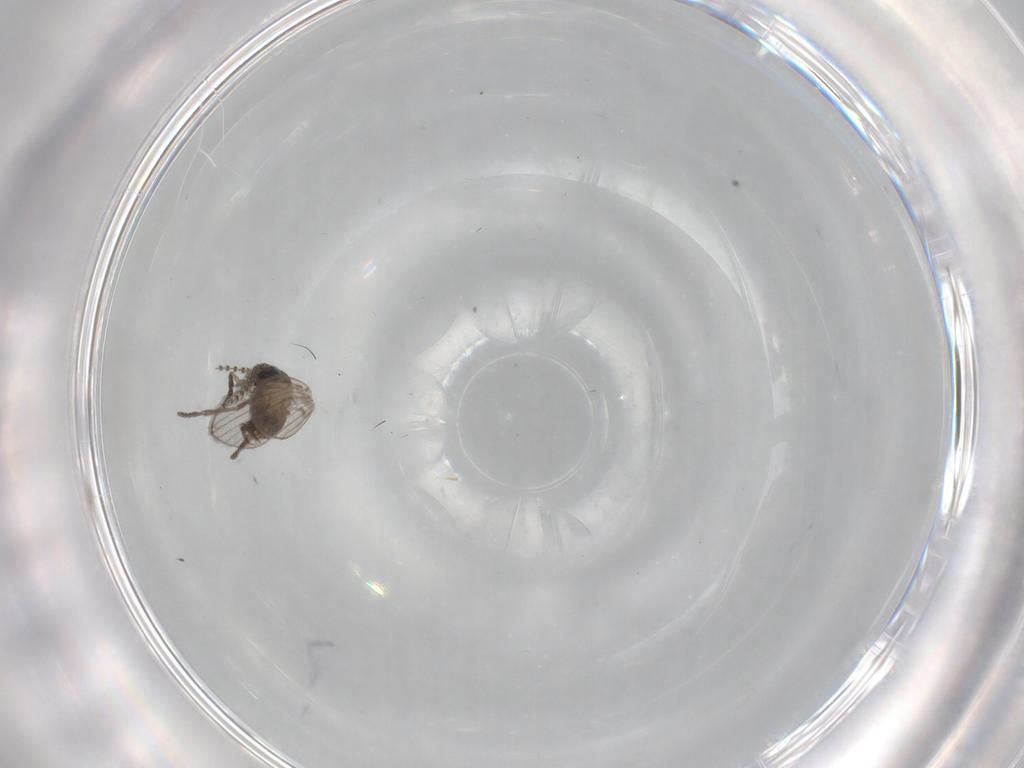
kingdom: Animalia
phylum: Arthropoda
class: Insecta
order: Diptera
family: Psychodidae
